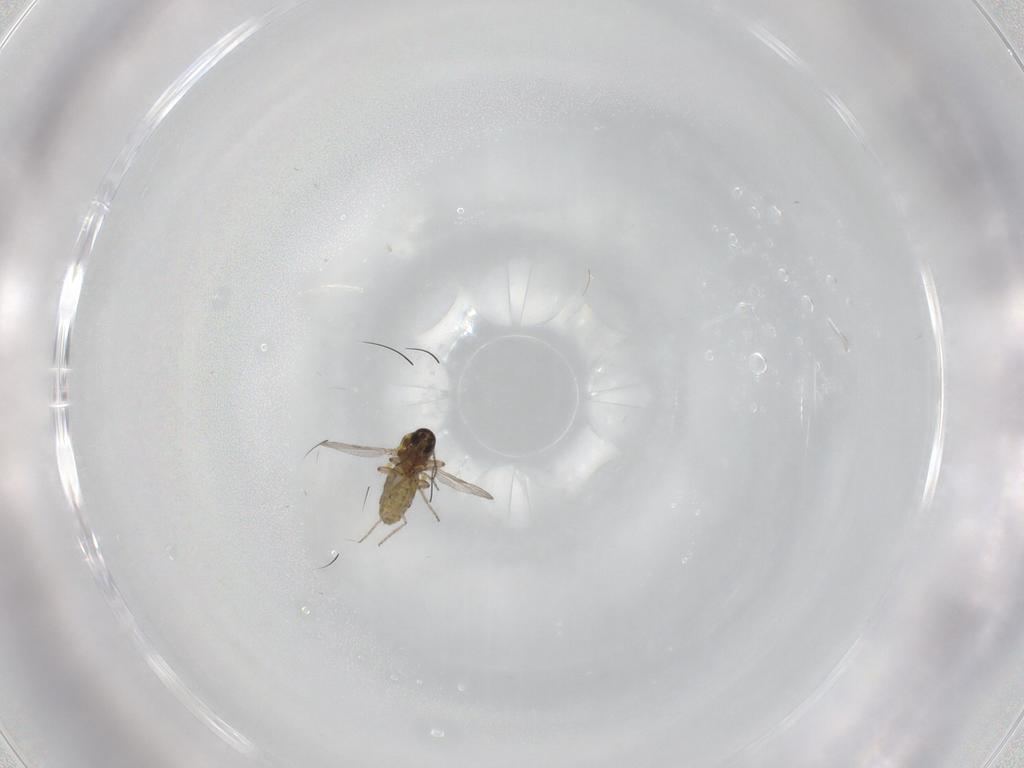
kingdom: Animalia
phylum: Arthropoda
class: Insecta
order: Diptera
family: Ceratopogonidae
